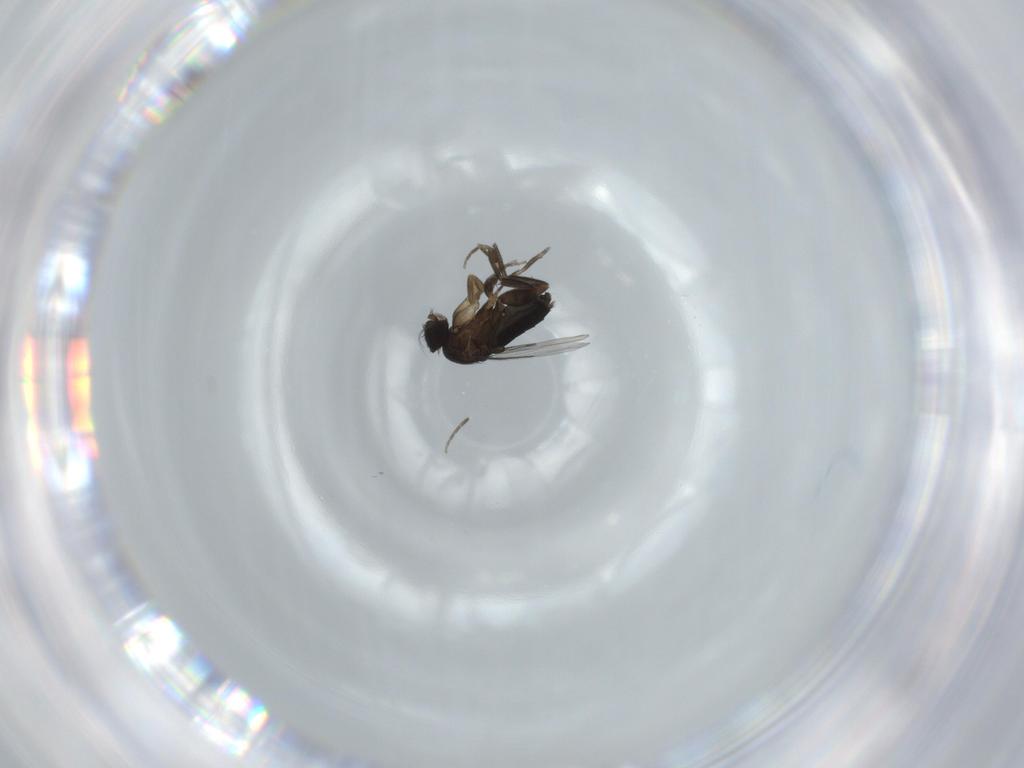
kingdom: Animalia
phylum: Arthropoda
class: Insecta
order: Diptera
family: Phoridae
